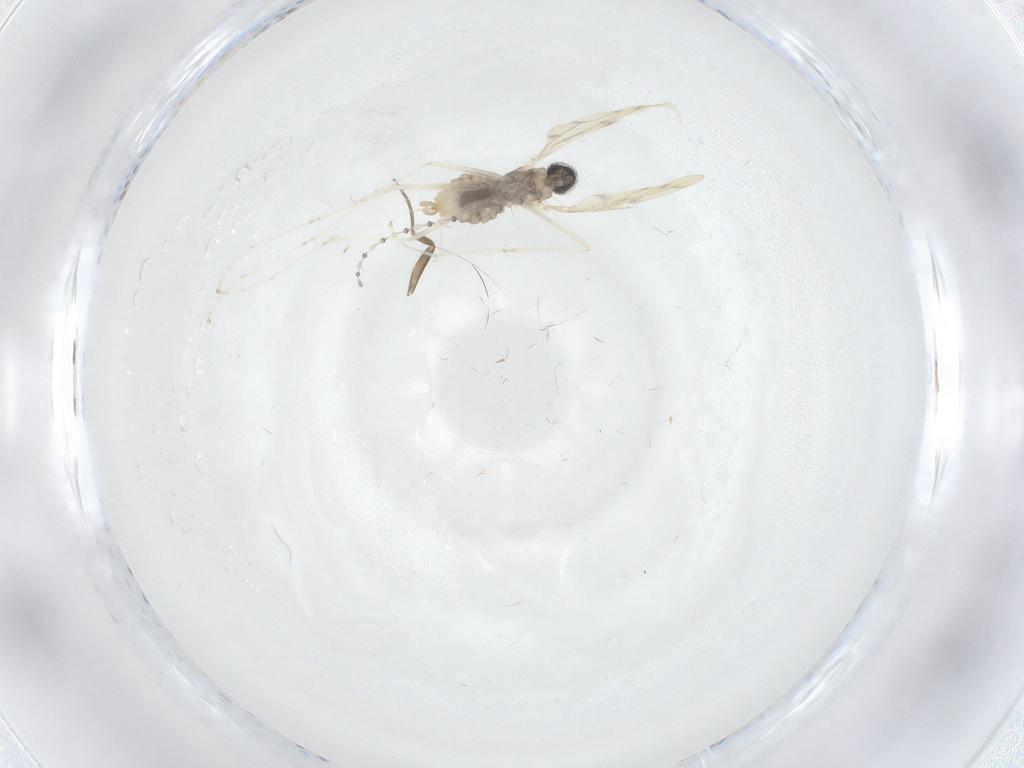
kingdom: Animalia
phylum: Arthropoda
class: Insecta
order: Diptera
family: Cecidomyiidae
